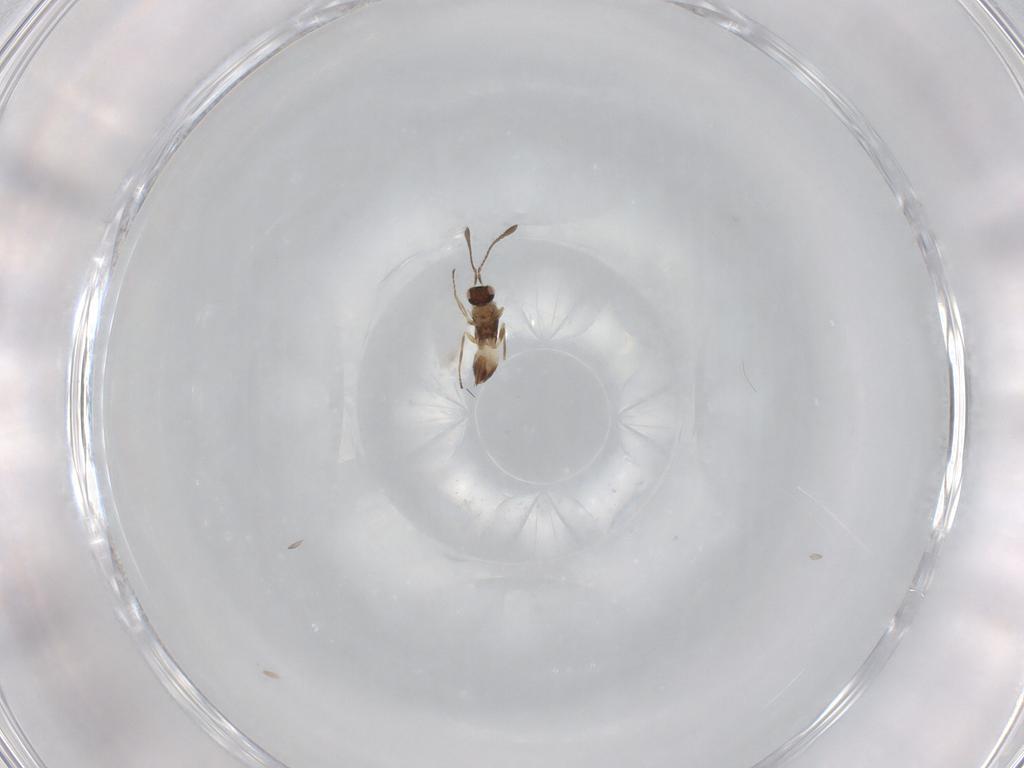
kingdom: Animalia
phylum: Arthropoda
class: Insecta
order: Hymenoptera
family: Mymaridae
